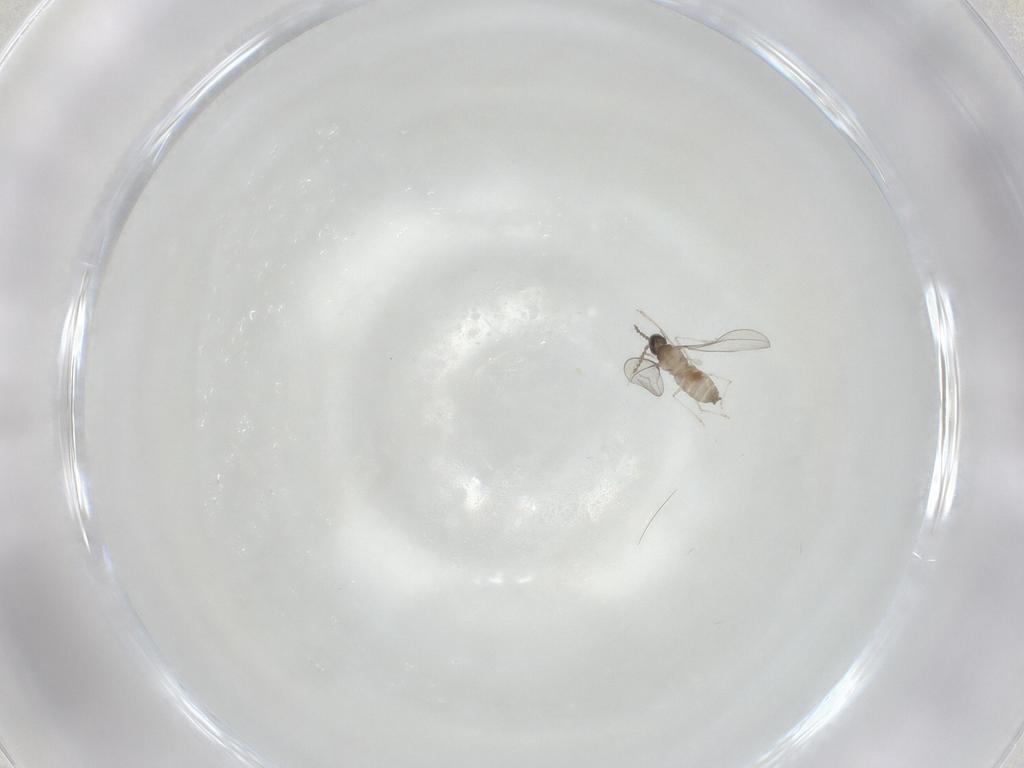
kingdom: Animalia
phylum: Arthropoda
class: Insecta
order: Diptera
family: Cecidomyiidae
